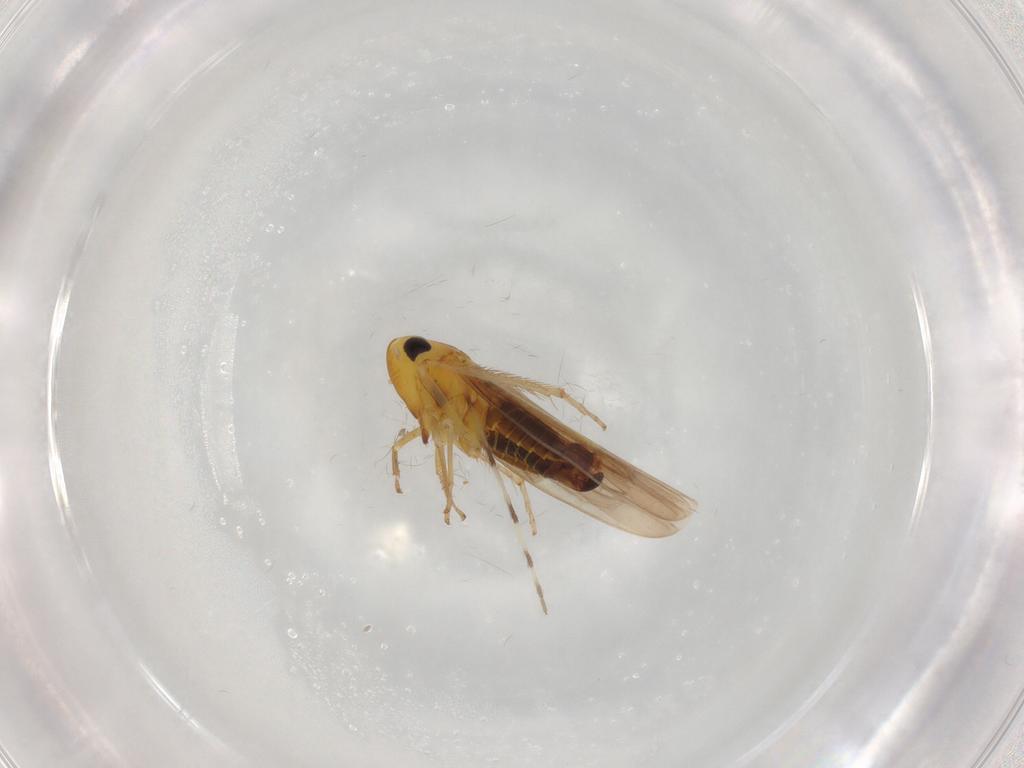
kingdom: Animalia
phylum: Arthropoda
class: Insecta
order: Hemiptera
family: Cicadellidae
